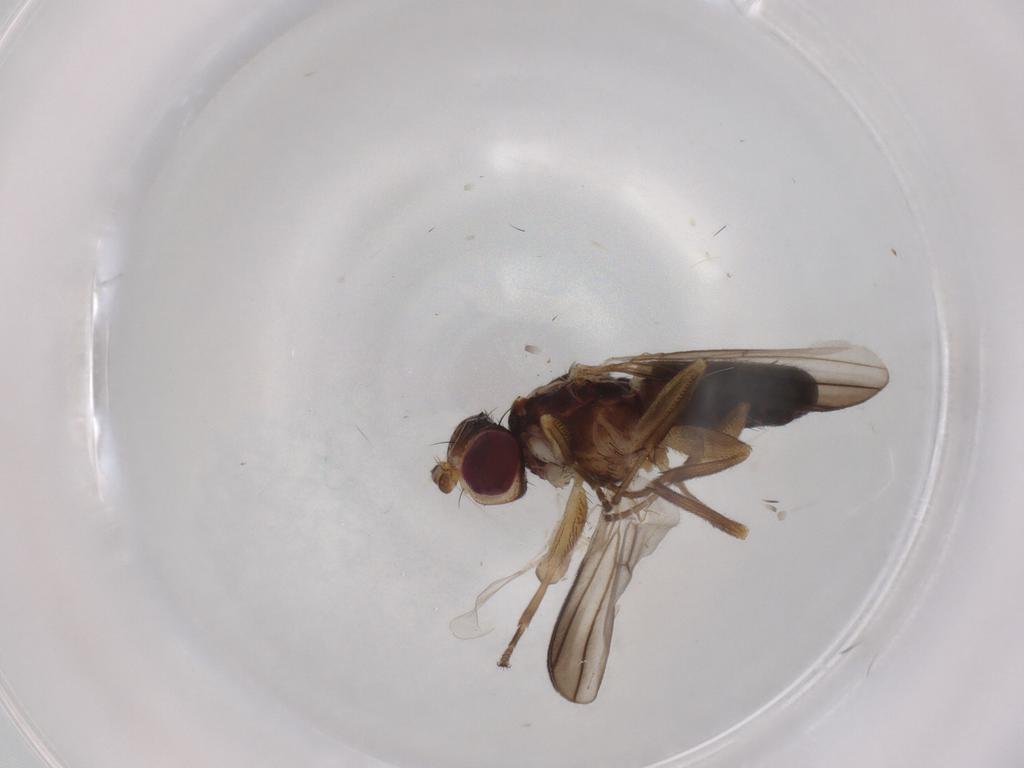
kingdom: Animalia
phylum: Arthropoda
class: Insecta
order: Diptera
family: Clusiidae
